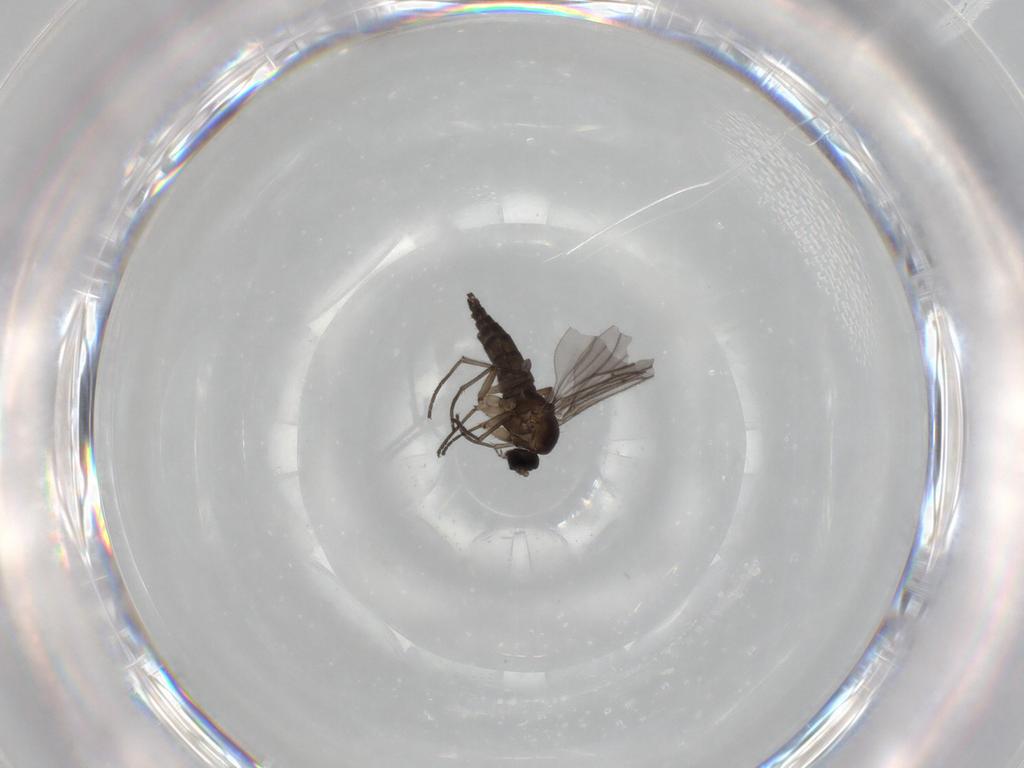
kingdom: Animalia
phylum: Arthropoda
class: Insecta
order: Diptera
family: Sciaridae
